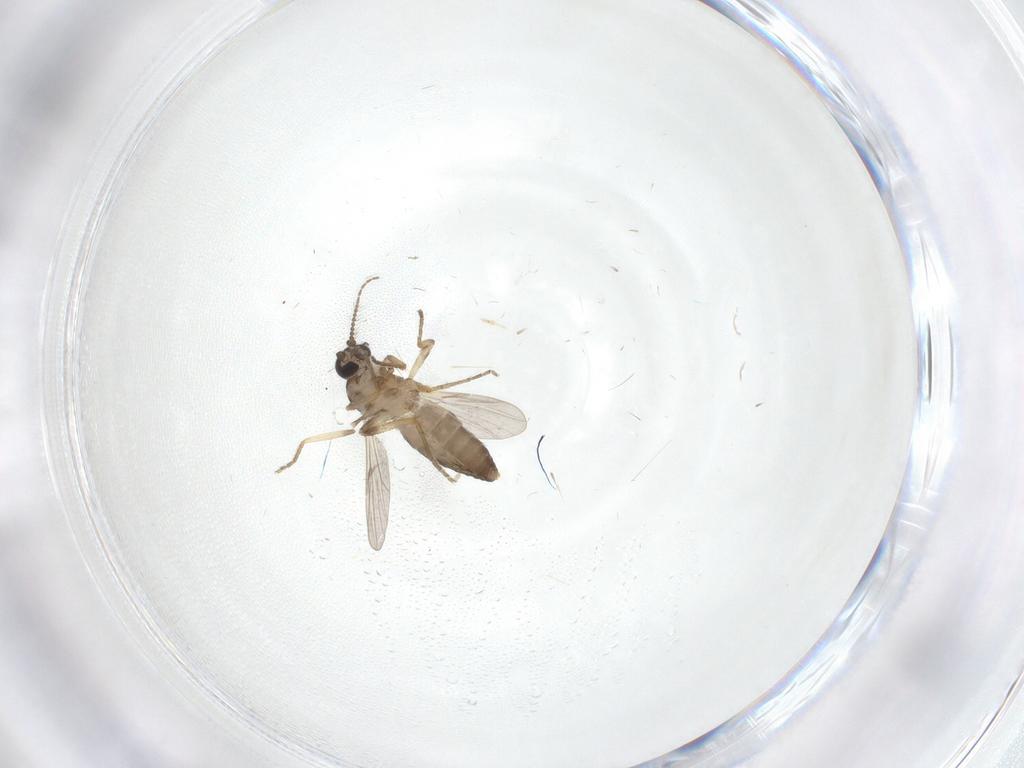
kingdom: Animalia
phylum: Arthropoda
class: Insecta
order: Diptera
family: Ceratopogonidae
